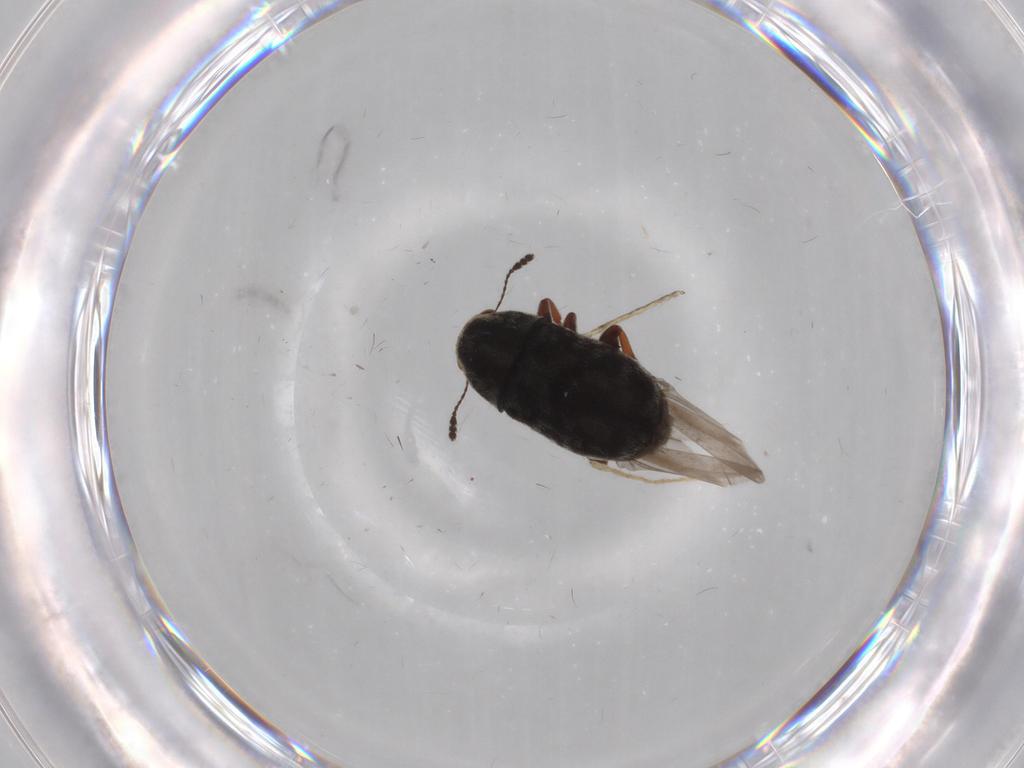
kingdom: Animalia
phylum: Arthropoda
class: Insecta
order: Coleoptera
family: Anthribidae
